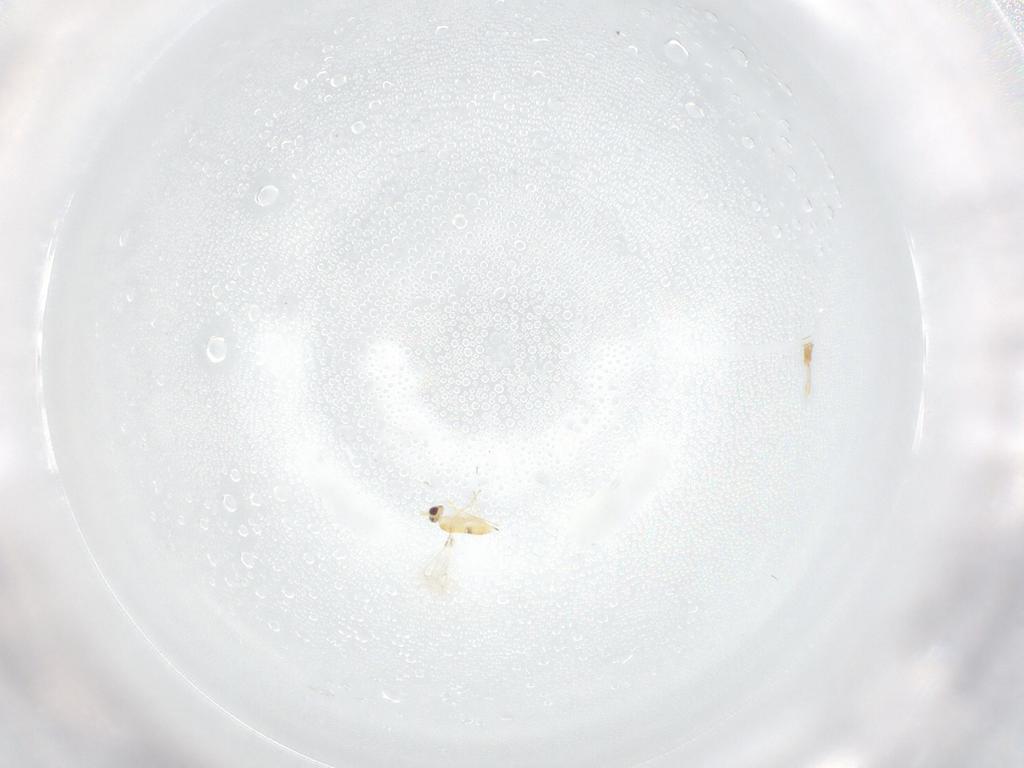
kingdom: Animalia
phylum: Arthropoda
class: Insecta
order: Hymenoptera
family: Mymaridae
